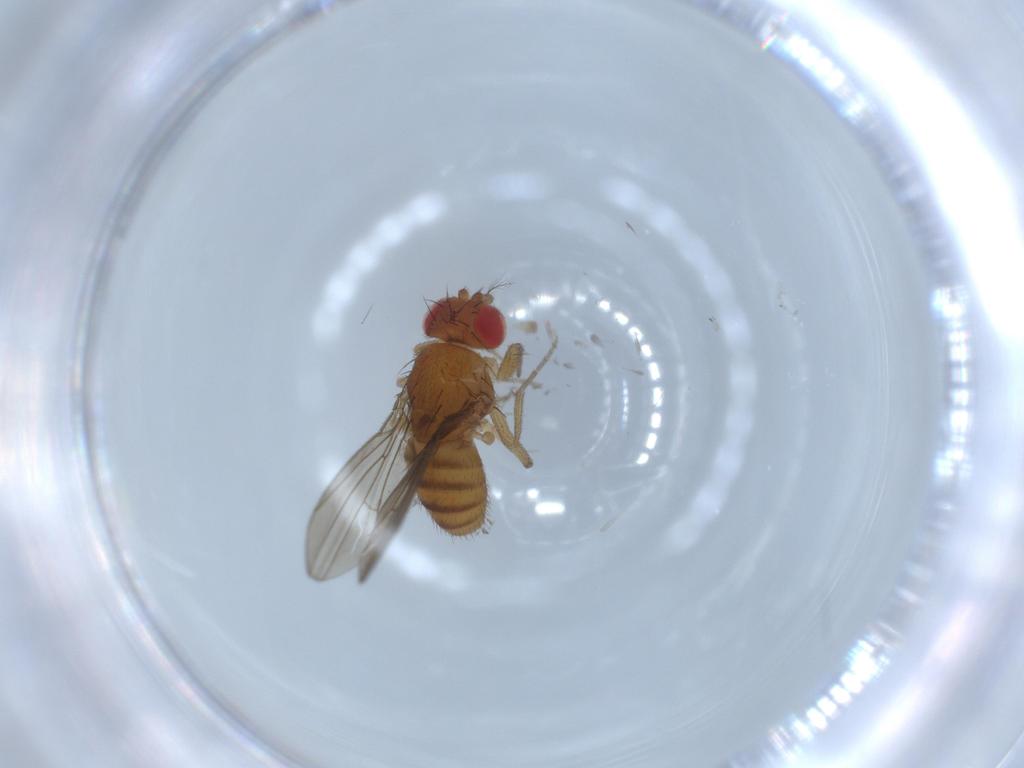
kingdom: Animalia
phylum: Arthropoda
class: Insecta
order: Diptera
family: Drosophilidae
